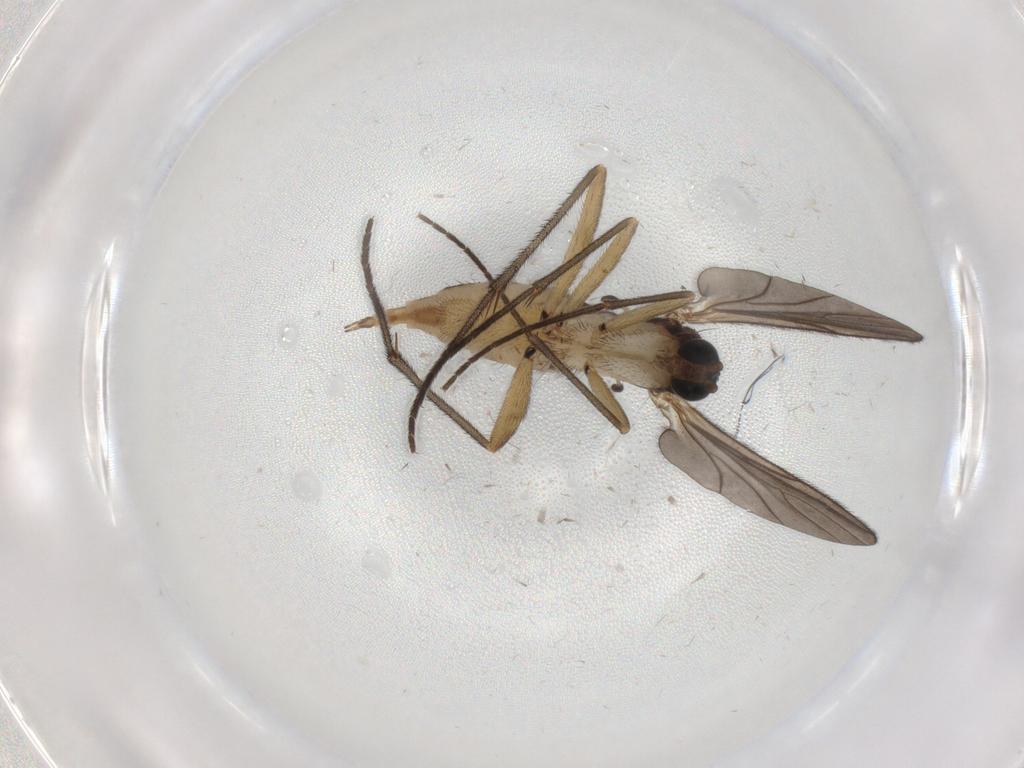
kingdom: Animalia
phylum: Arthropoda
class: Insecta
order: Diptera
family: Sciaridae
